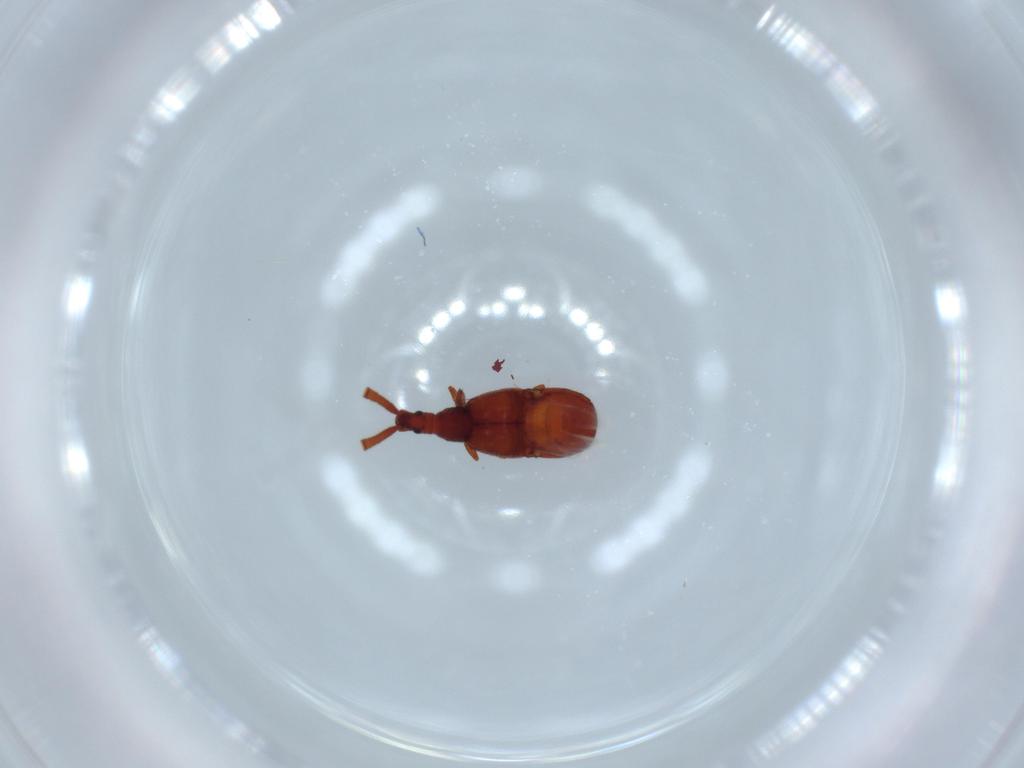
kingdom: Animalia
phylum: Arthropoda
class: Insecta
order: Coleoptera
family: Staphylinidae
